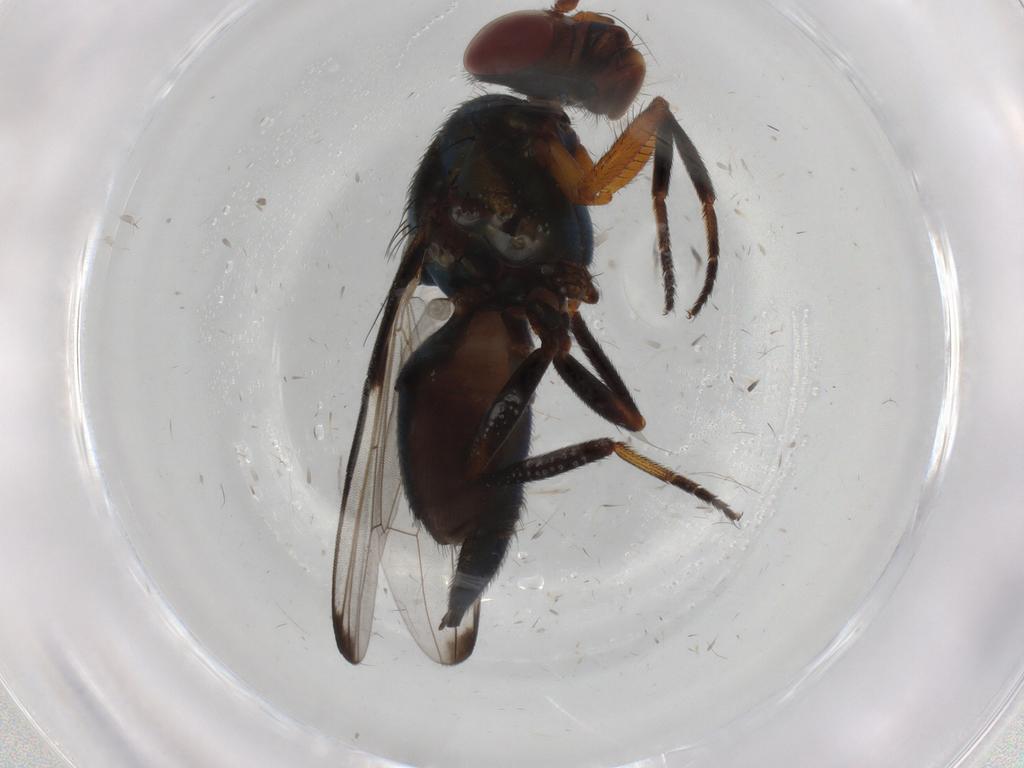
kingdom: Animalia
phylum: Arthropoda
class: Insecta
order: Diptera
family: Ulidiidae
